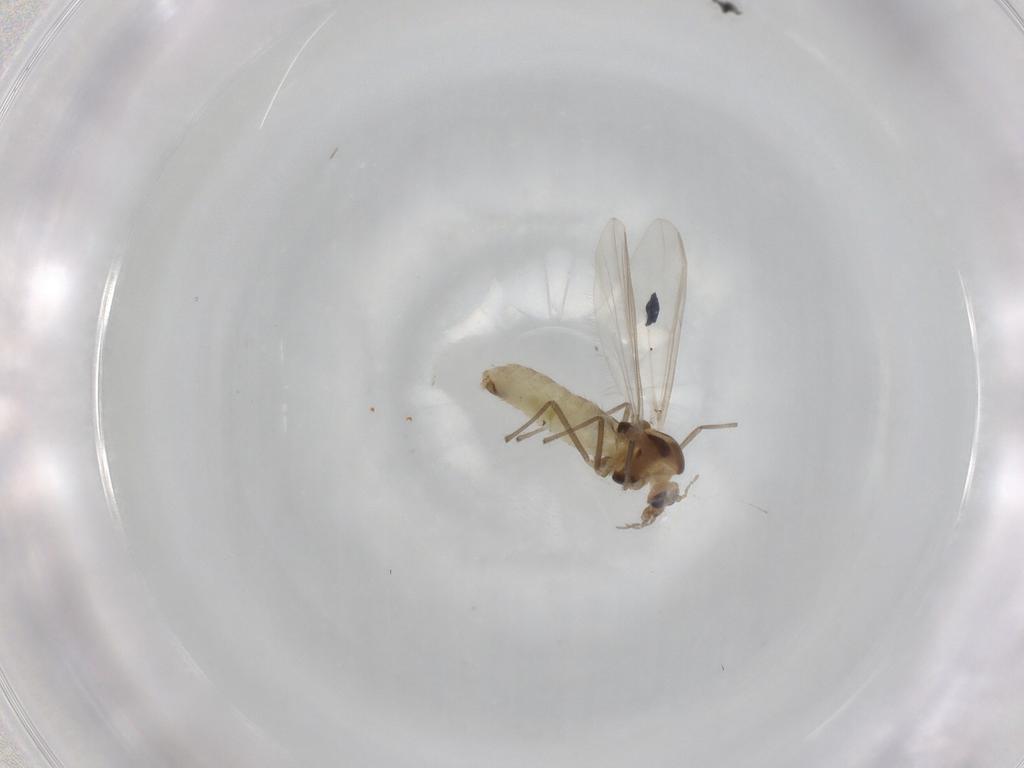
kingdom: Animalia
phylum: Arthropoda
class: Insecta
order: Diptera
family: Chironomidae
